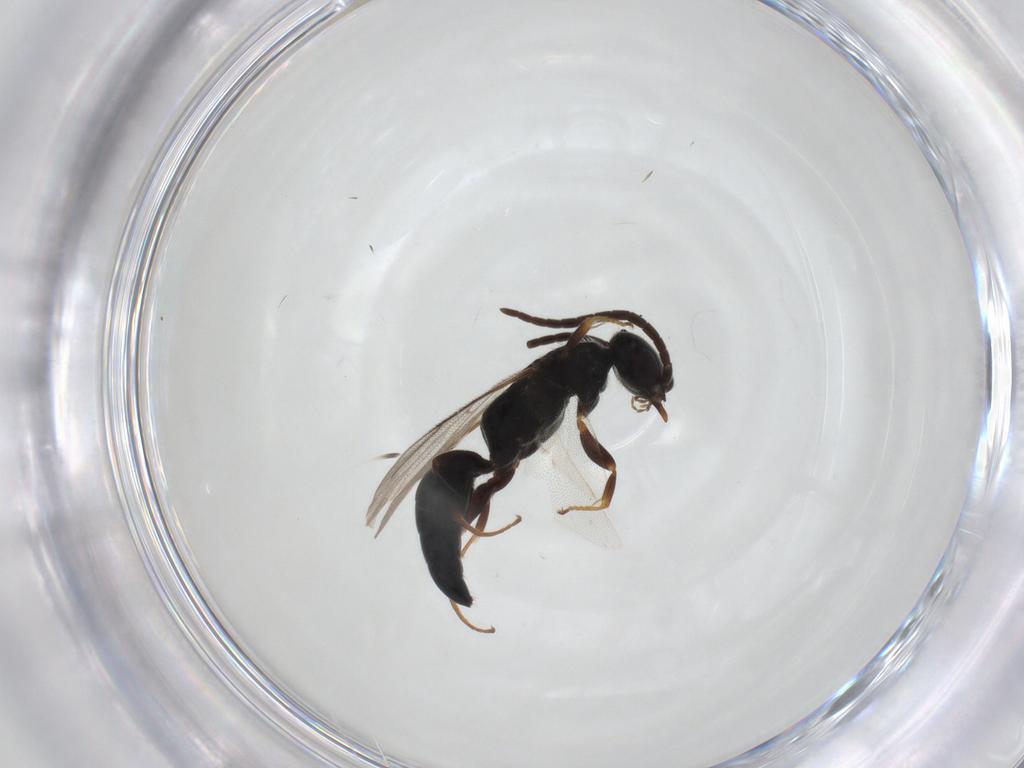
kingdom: Animalia
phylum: Arthropoda
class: Insecta
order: Hymenoptera
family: Bethylidae
